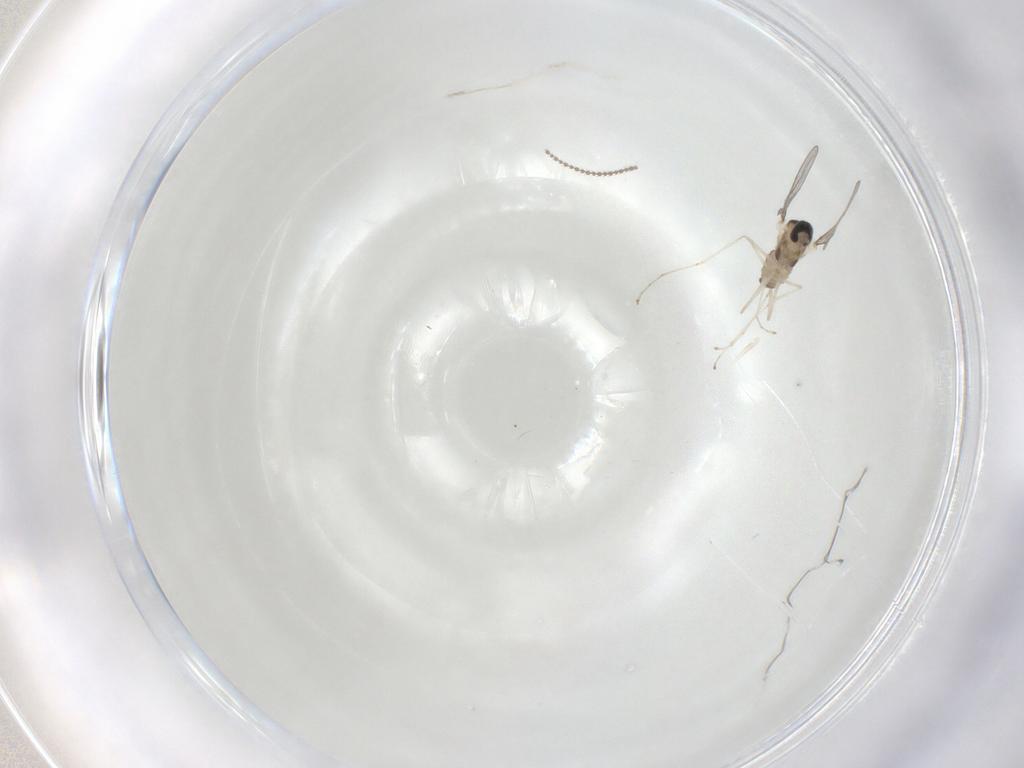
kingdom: Animalia
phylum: Arthropoda
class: Insecta
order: Diptera
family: Cecidomyiidae
